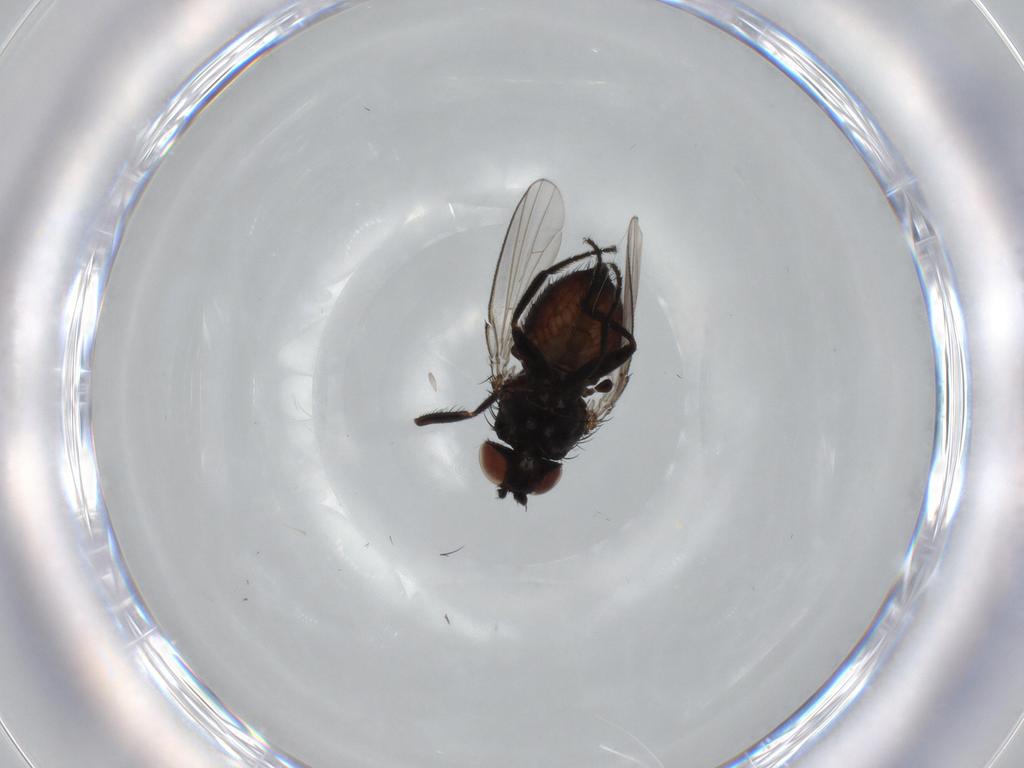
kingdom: Animalia
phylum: Arthropoda
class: Insecta
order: Diptera
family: Milichiidae
